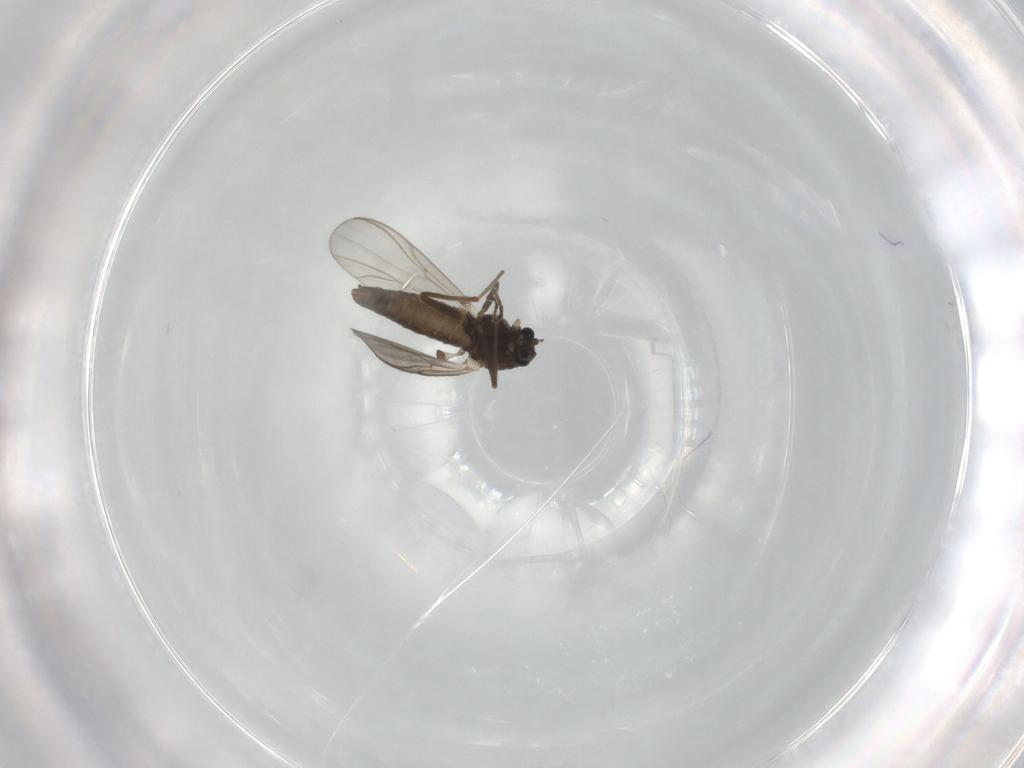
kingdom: Animalia
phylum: Arthropoda
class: Insecta
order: Diptera
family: Chironomidae
